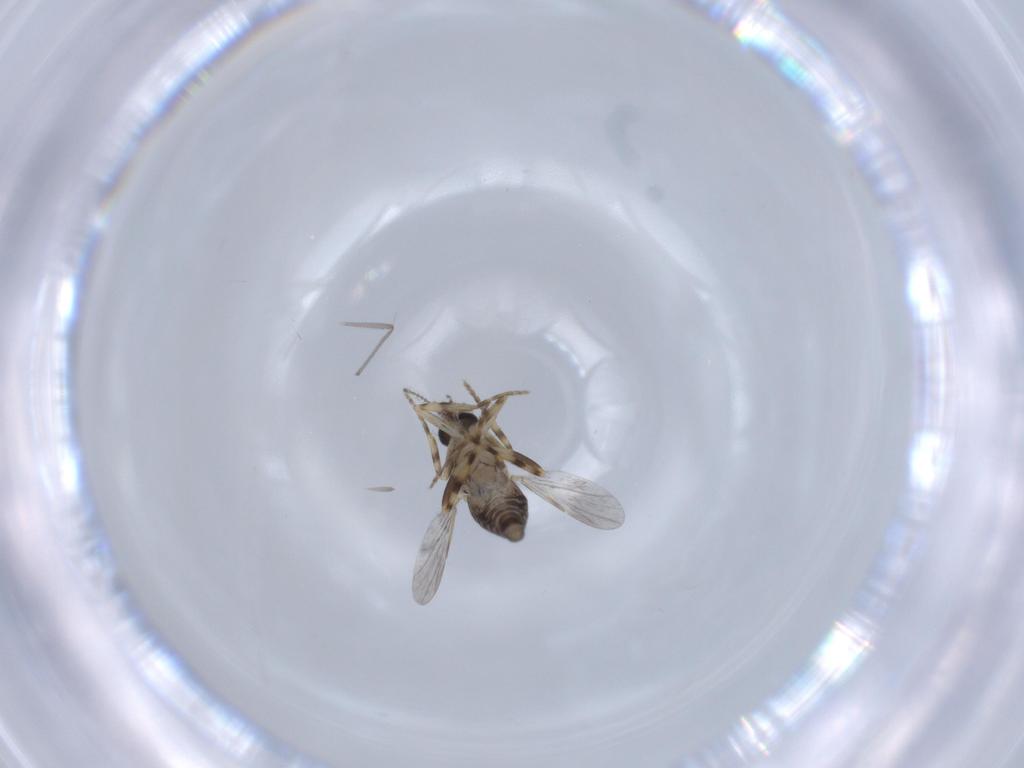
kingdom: Animalia
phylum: Arthropoda
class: Insecta
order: Diptera
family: Ceratopogonidae
